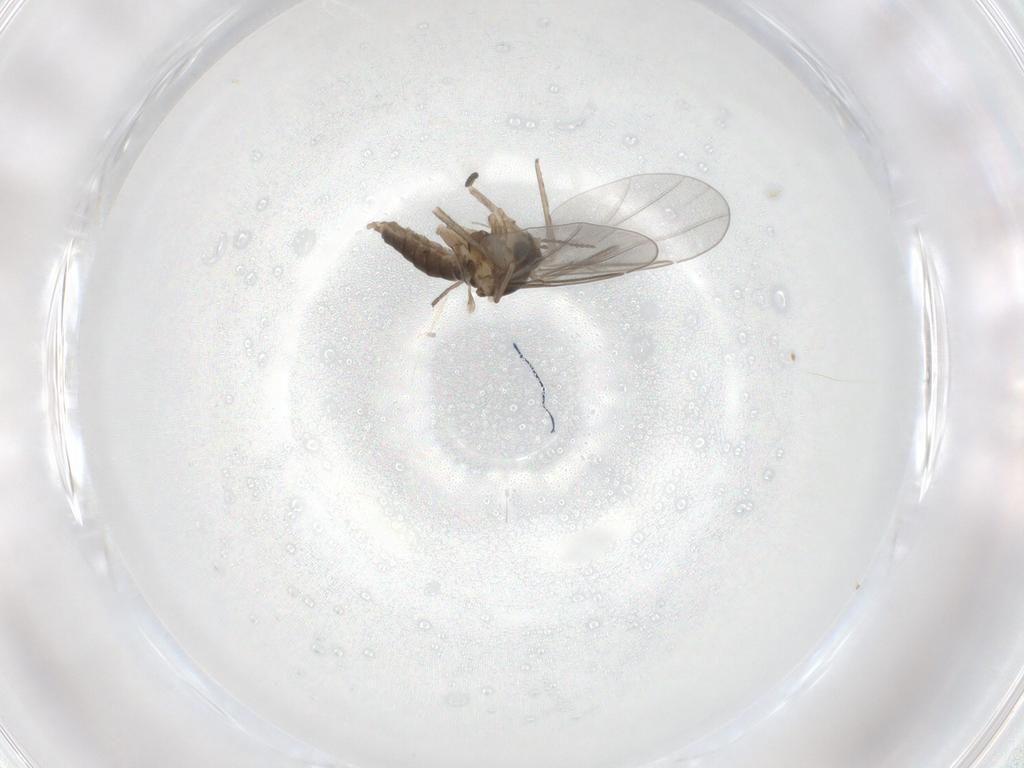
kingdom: Animalia
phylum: Arthropoda
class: Insecta
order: Diptera
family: Cecidomyiidae
